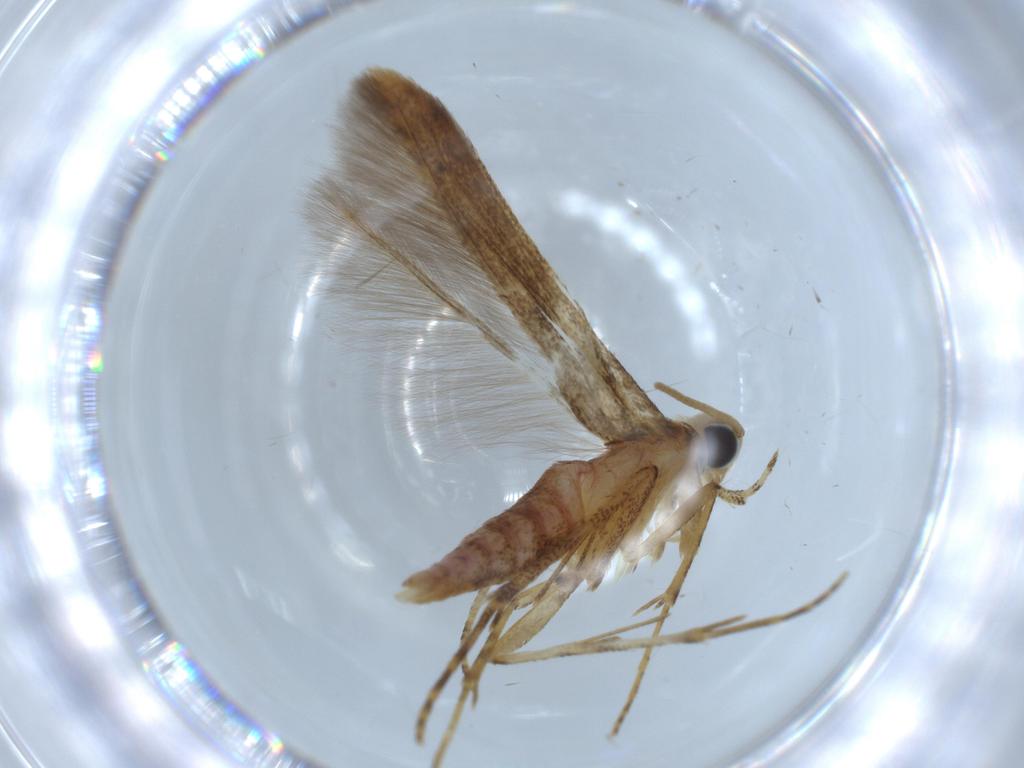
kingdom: Animalia
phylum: Arthropoda
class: Insecta
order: Lepidoptera
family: Batrachedridae
